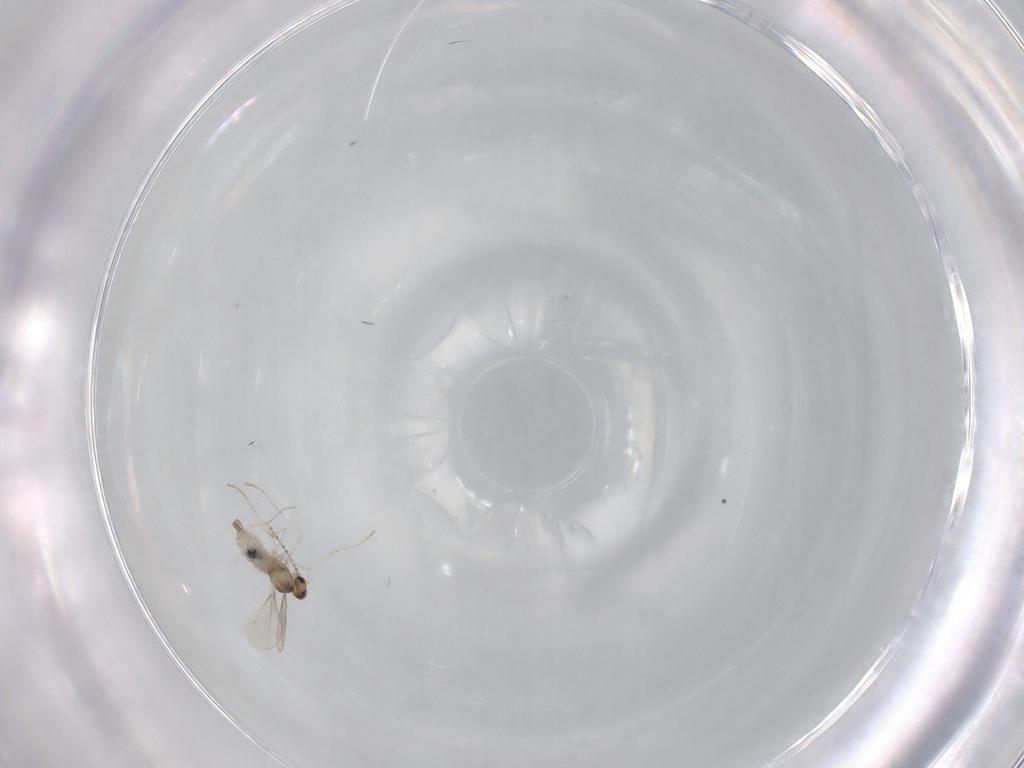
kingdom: Animalia
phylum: Arthropoda
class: Insecta
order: Diptera
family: Cecidomyiidae
